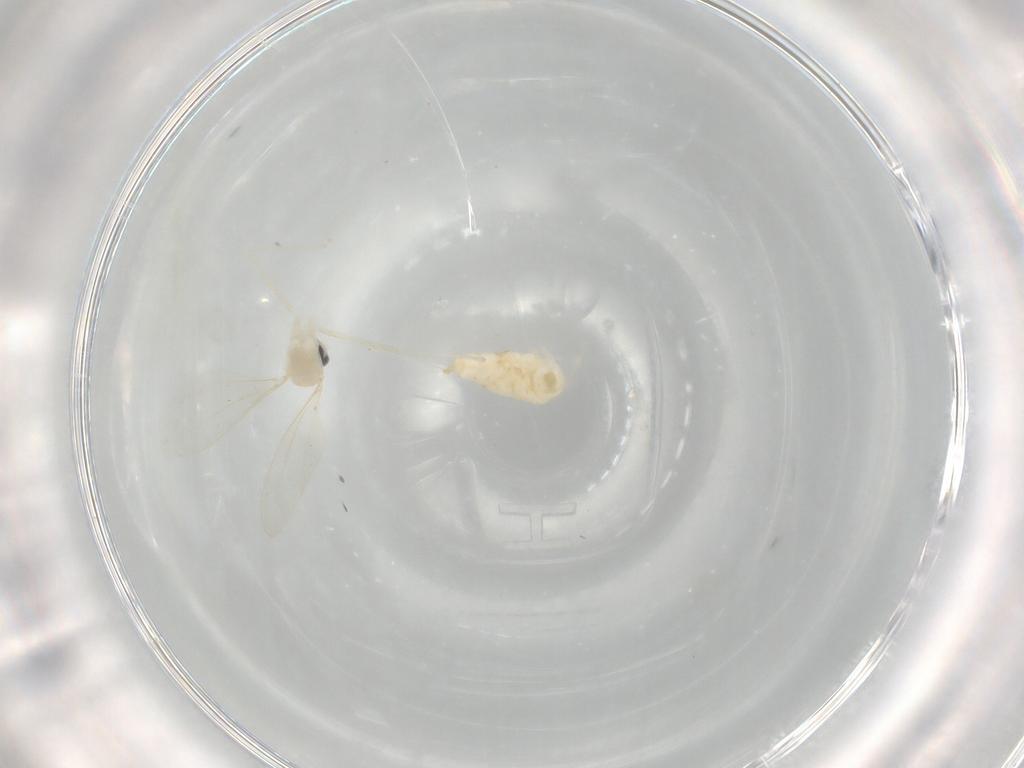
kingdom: Animalia
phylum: Arthropoda
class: Insecta
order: Diptera
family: Cecidomyiidae
